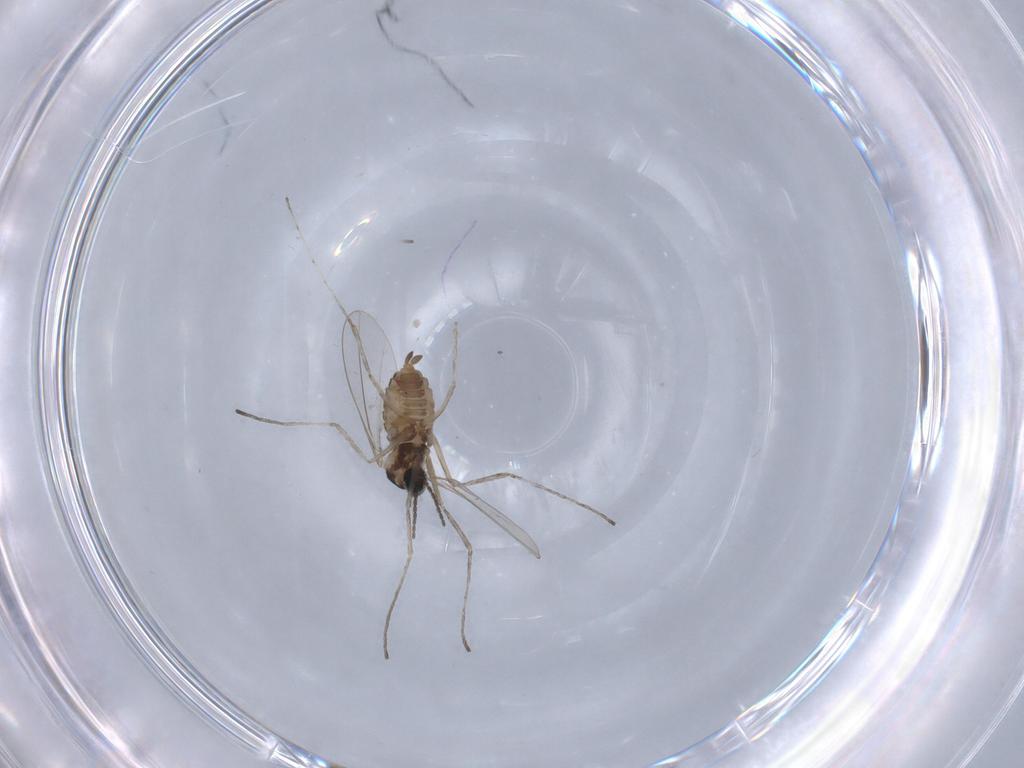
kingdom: Animalia
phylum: Arthropoda
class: Insecta
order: Diptera
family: Cecidomyiidae
